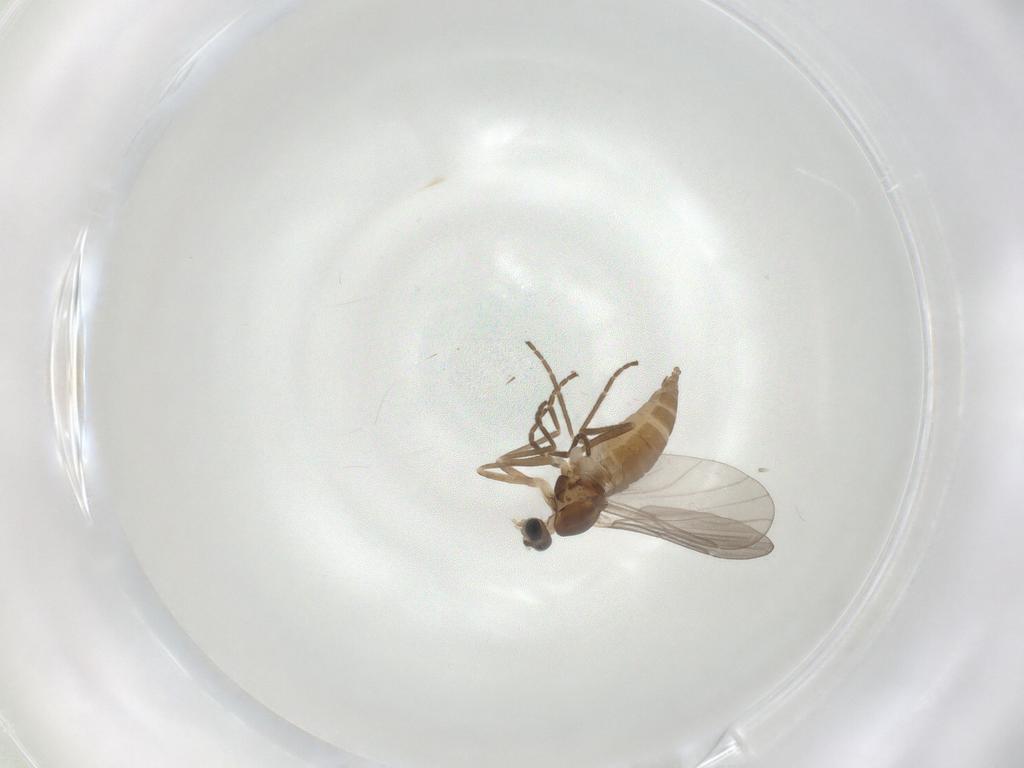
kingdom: Animalia
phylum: Arthropoda
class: Insecta
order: Diptera
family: Cecidomyiidae
